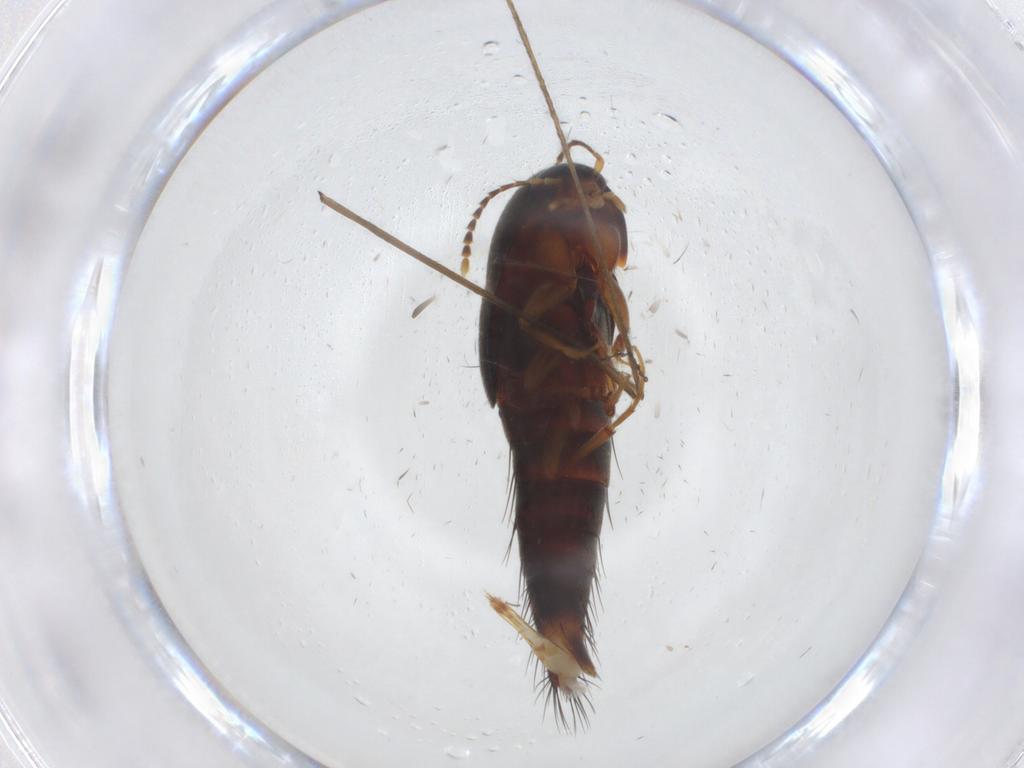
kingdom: Animalia
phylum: Arthropoda
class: Insecta
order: Coleoptera
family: Staphylinidae
